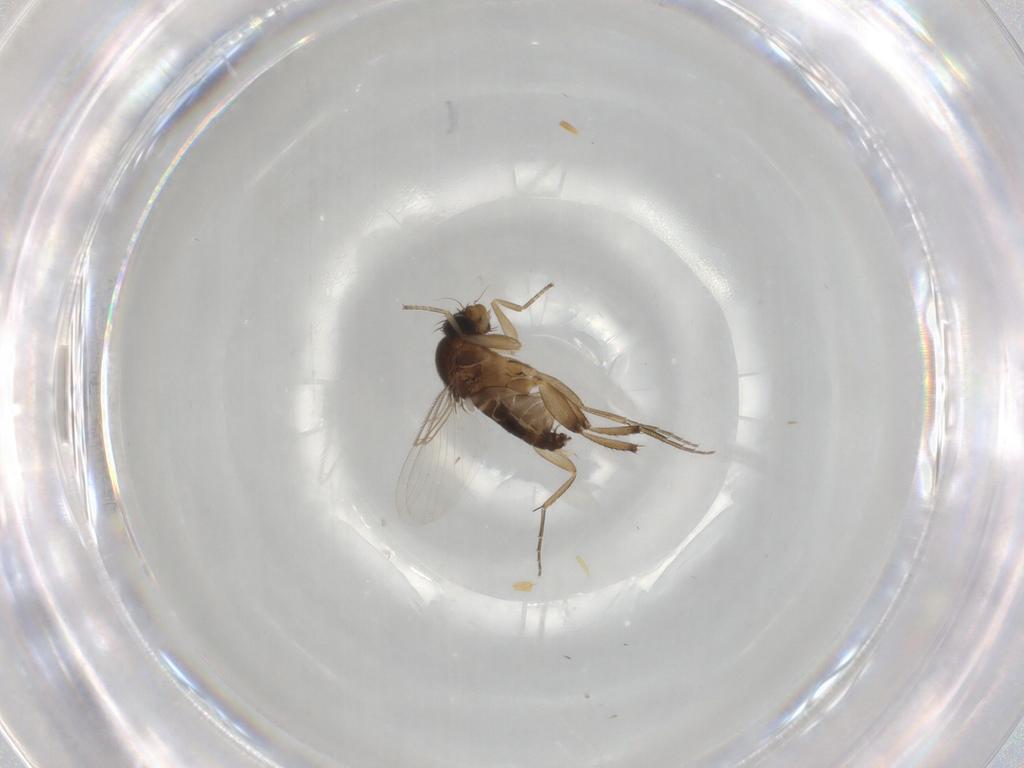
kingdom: Animalia
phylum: Arthropoda
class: Insecta
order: Diptera
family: Phoridae
